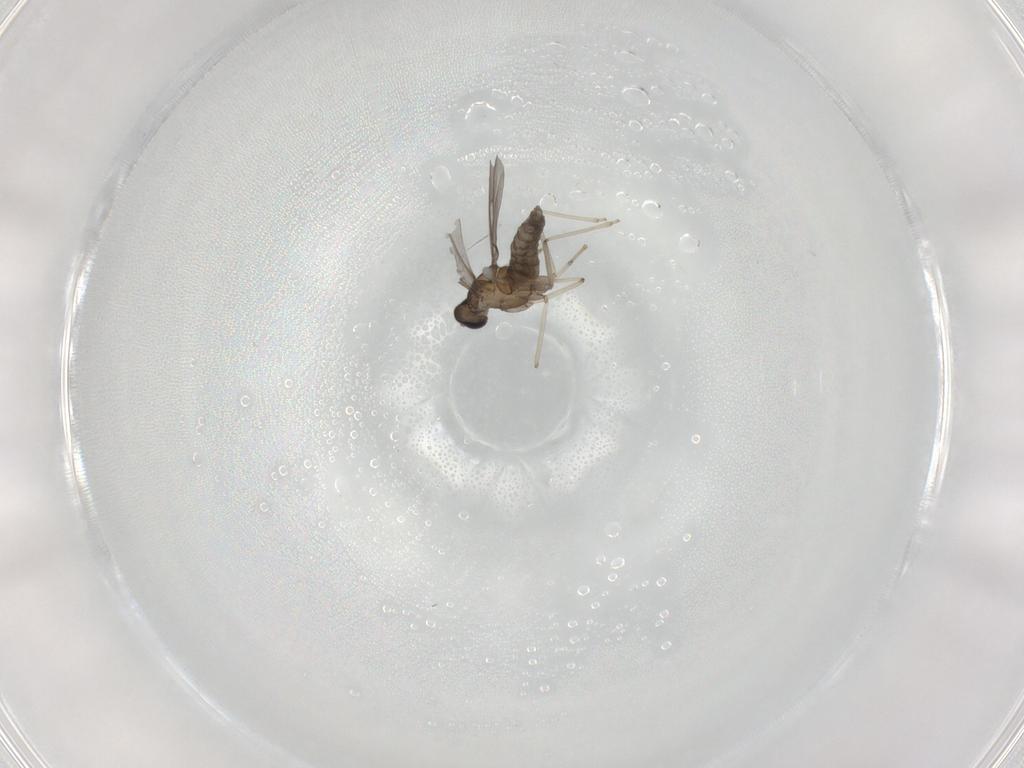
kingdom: Animalia
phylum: Arthropoda
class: Insecta
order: Diptera
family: Cecidomyiidae
